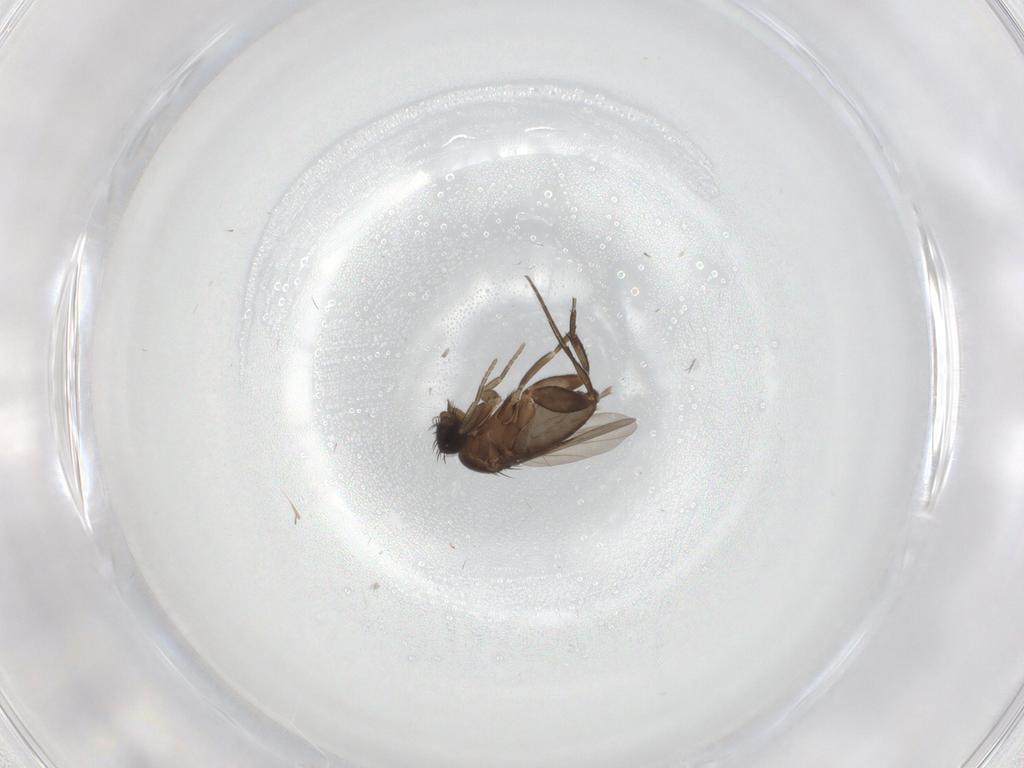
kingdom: Animalia
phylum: Arthropoda
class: Insecta
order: Diptera
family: Phoridae
